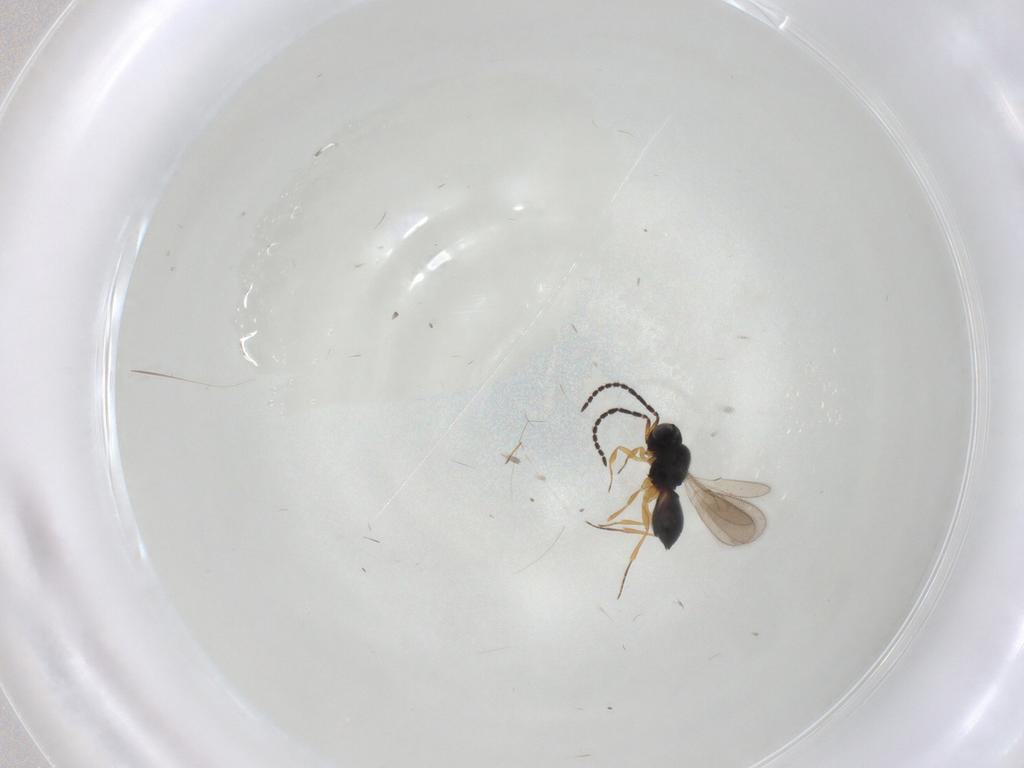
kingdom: Animalia
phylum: Arthropoda
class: Insecta
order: Hymenoptera
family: Scelionidae
